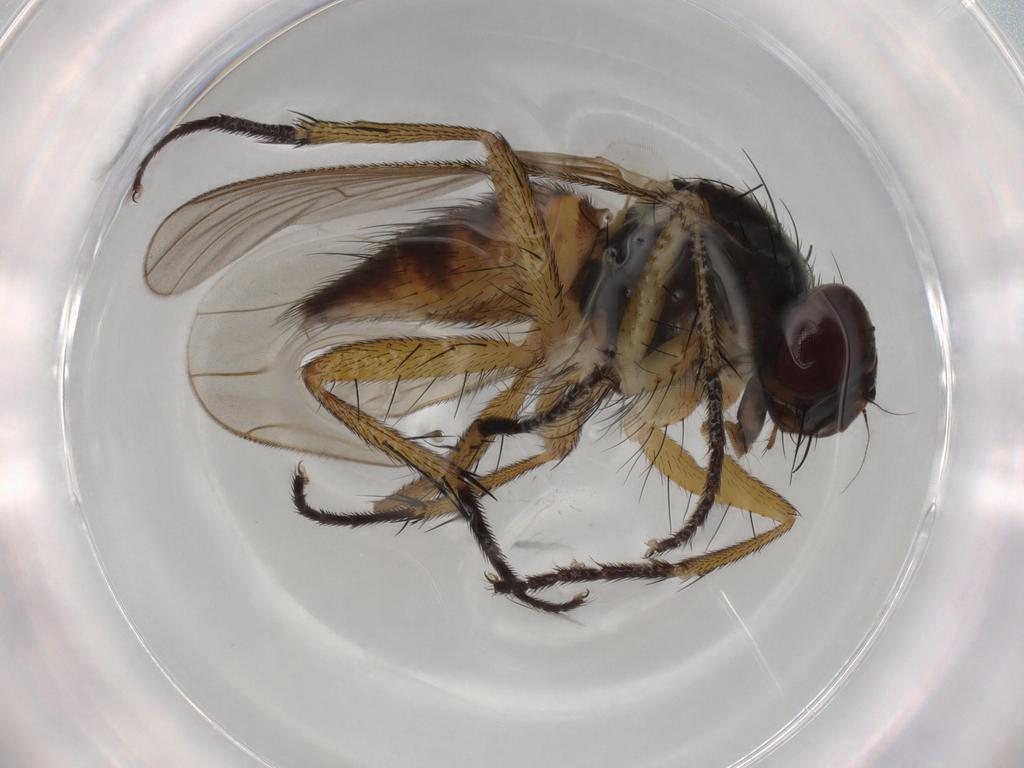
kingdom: Animalia
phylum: Arthropoda
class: Insecta
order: Diptera
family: Muscidae
